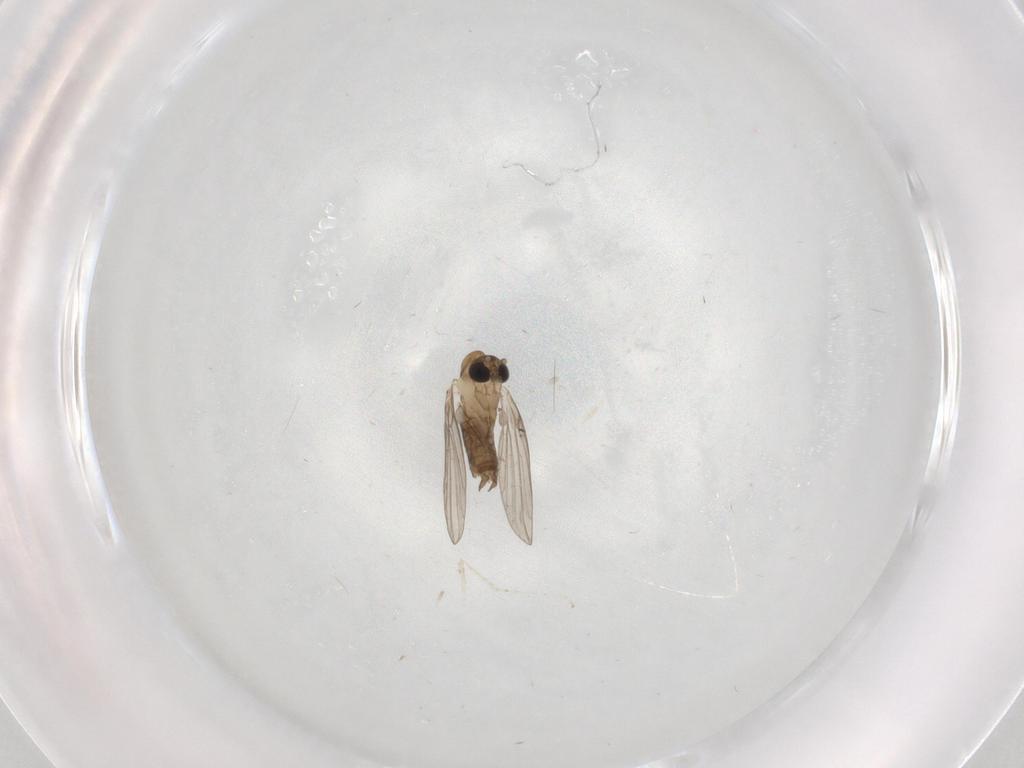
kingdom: Animalia
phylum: Arthropoda
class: Insecta
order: Diptera
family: Psychodidae
